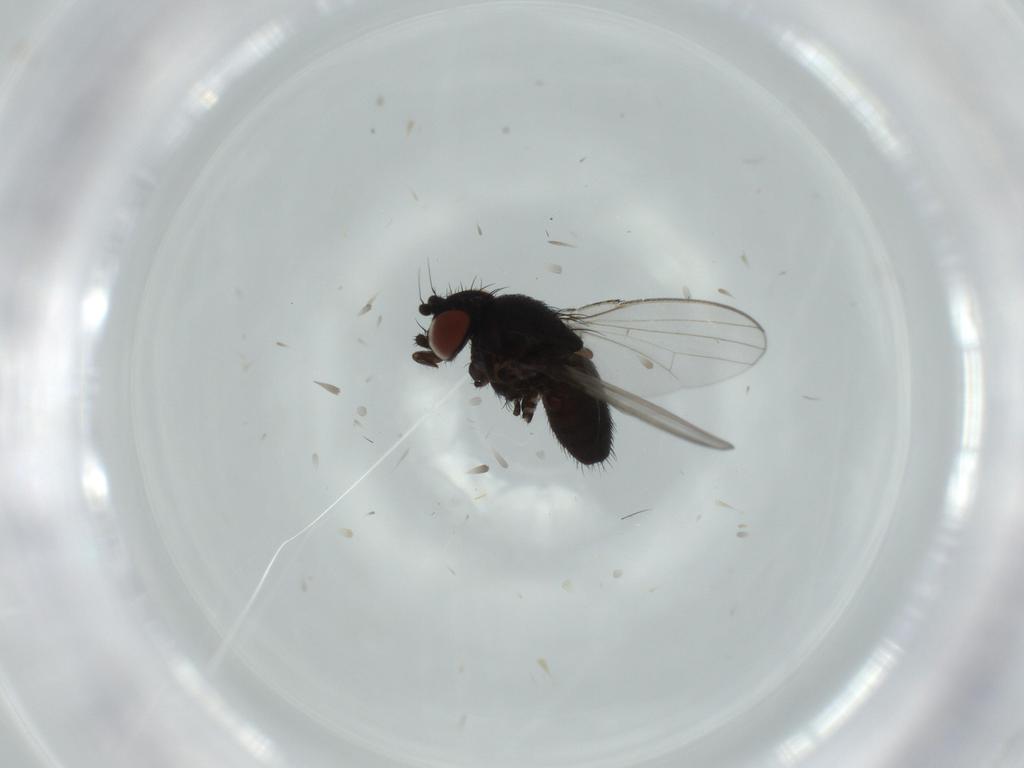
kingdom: Animalia
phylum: Arthropoda
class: Insecta
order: Diptera
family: Milichiidae
